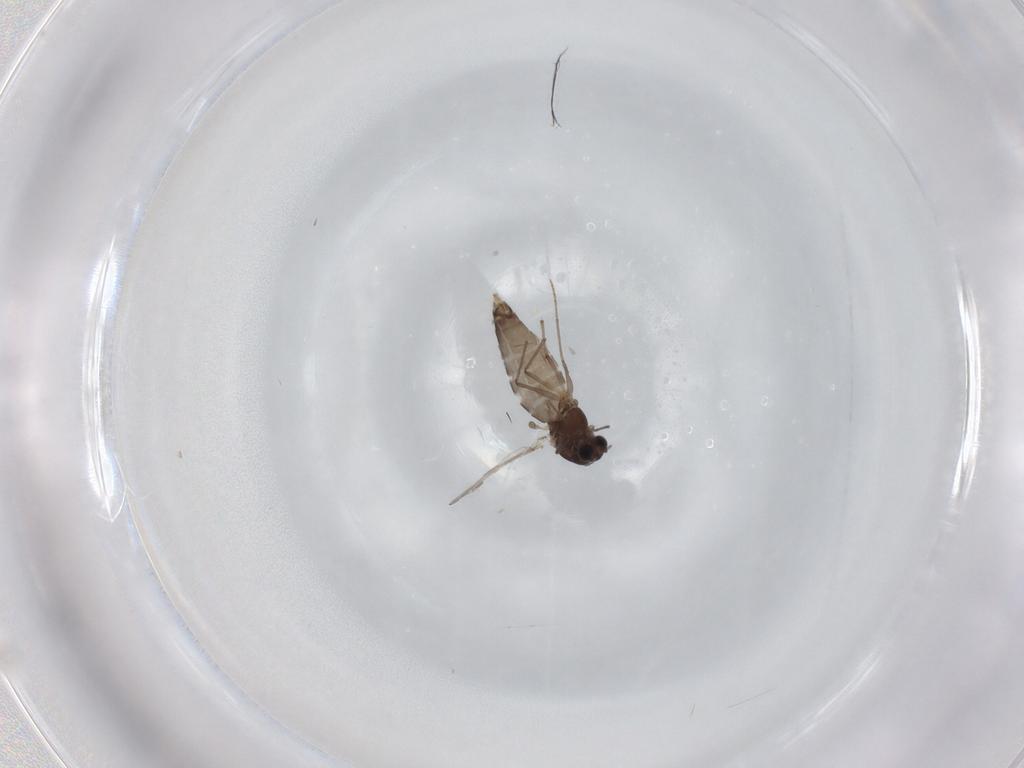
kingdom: Animalia
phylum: Arthropoda
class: Insecta
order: Diptera
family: Chironomidae
